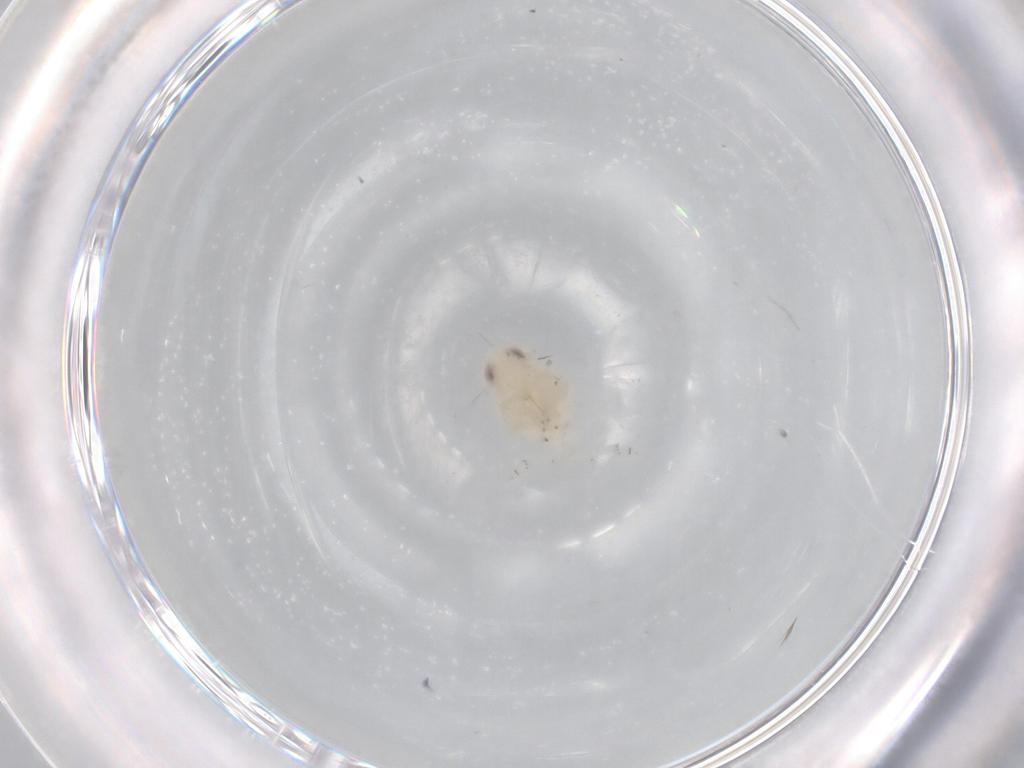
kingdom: Animalia
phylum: Arthropoda
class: Insecta
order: Hemiptera
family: Nogodinidae
